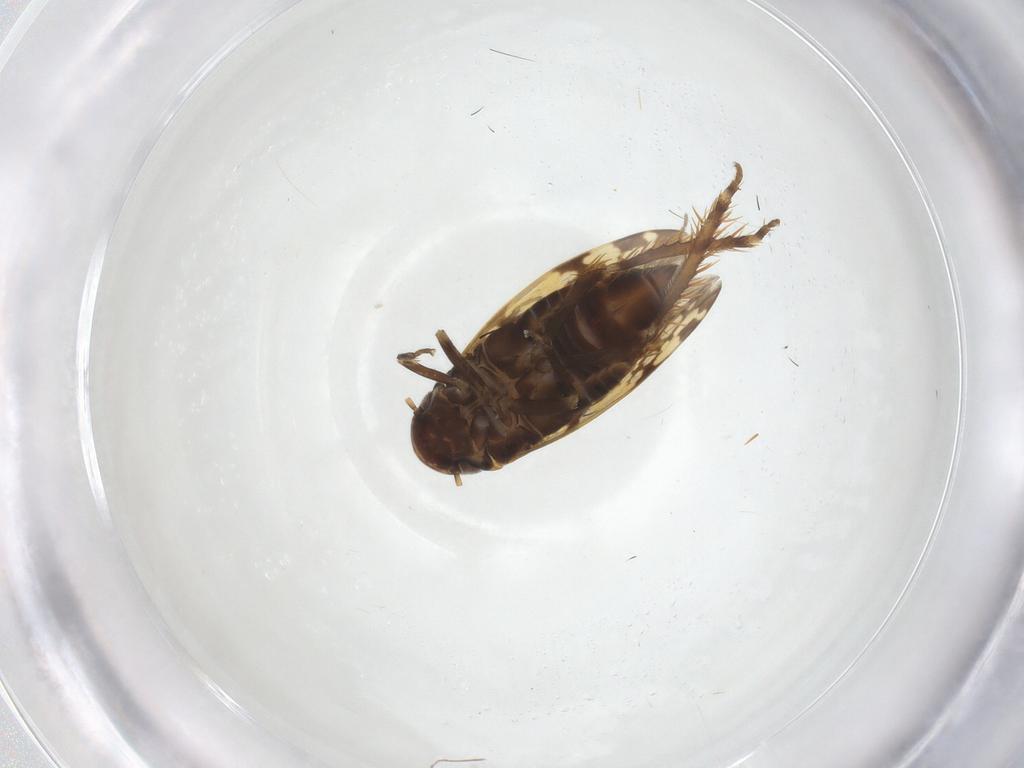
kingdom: Animalia
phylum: Arthropoda
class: Insecta
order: Hemiptera
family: Cicadellidae
